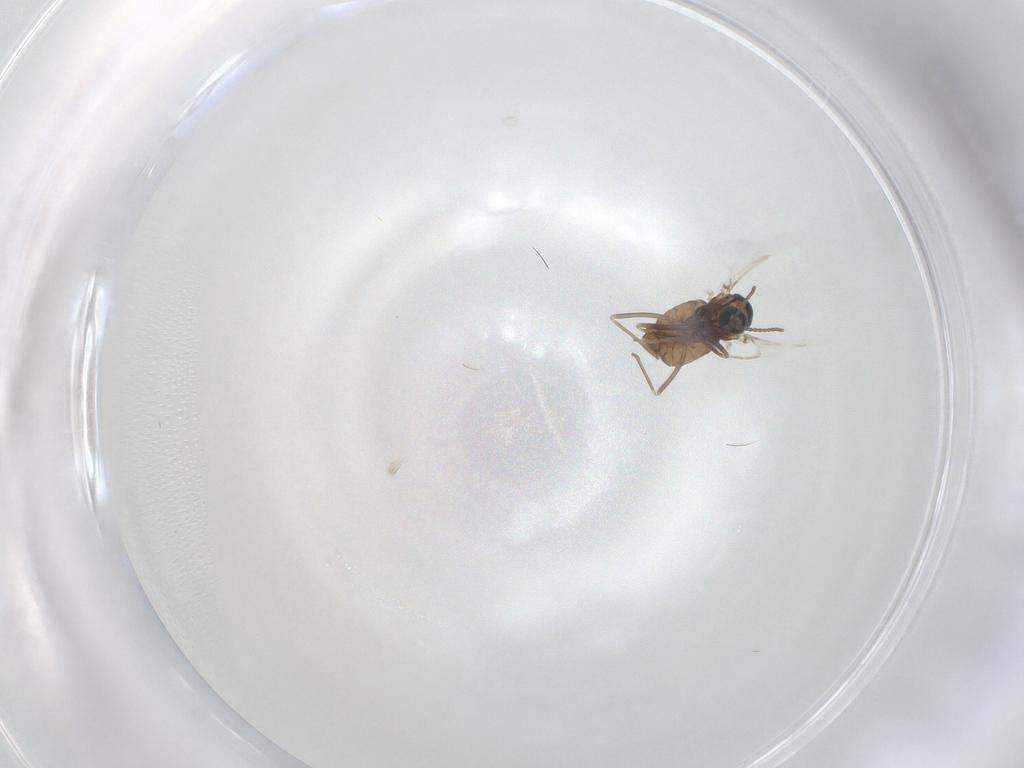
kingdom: Animalia
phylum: Arthropoda
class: Insecta
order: Diptera
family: Cecidomyiidae
